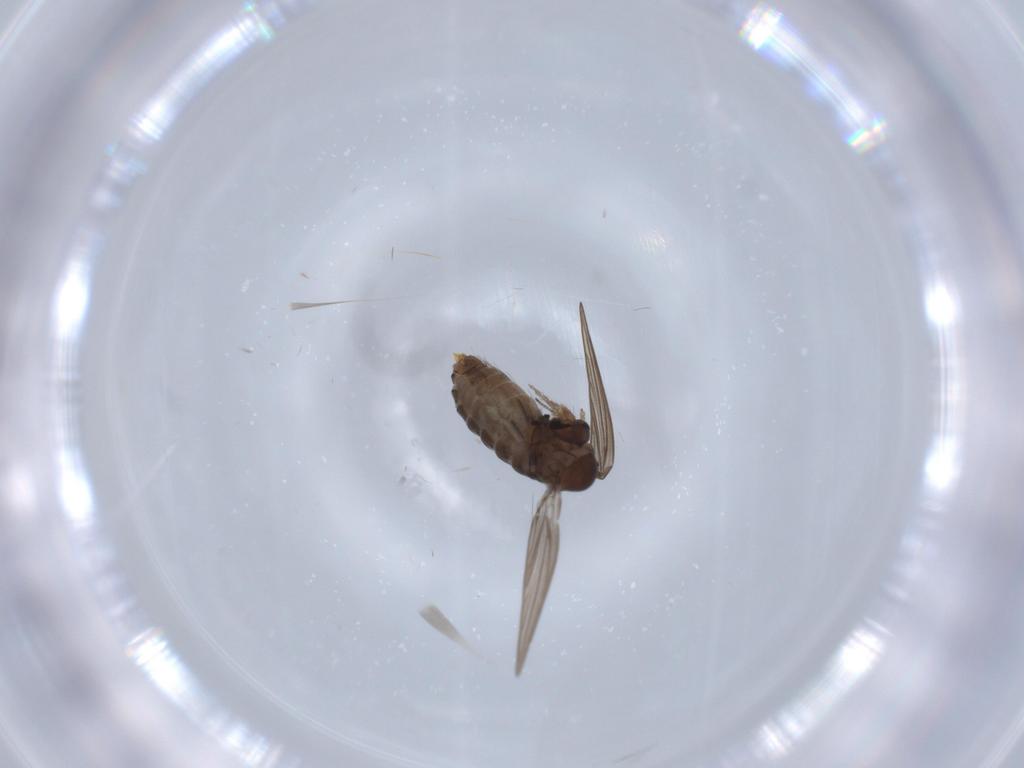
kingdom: Animalia
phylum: Arthropoda
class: Insecta
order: Diptera
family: Psychodidae
